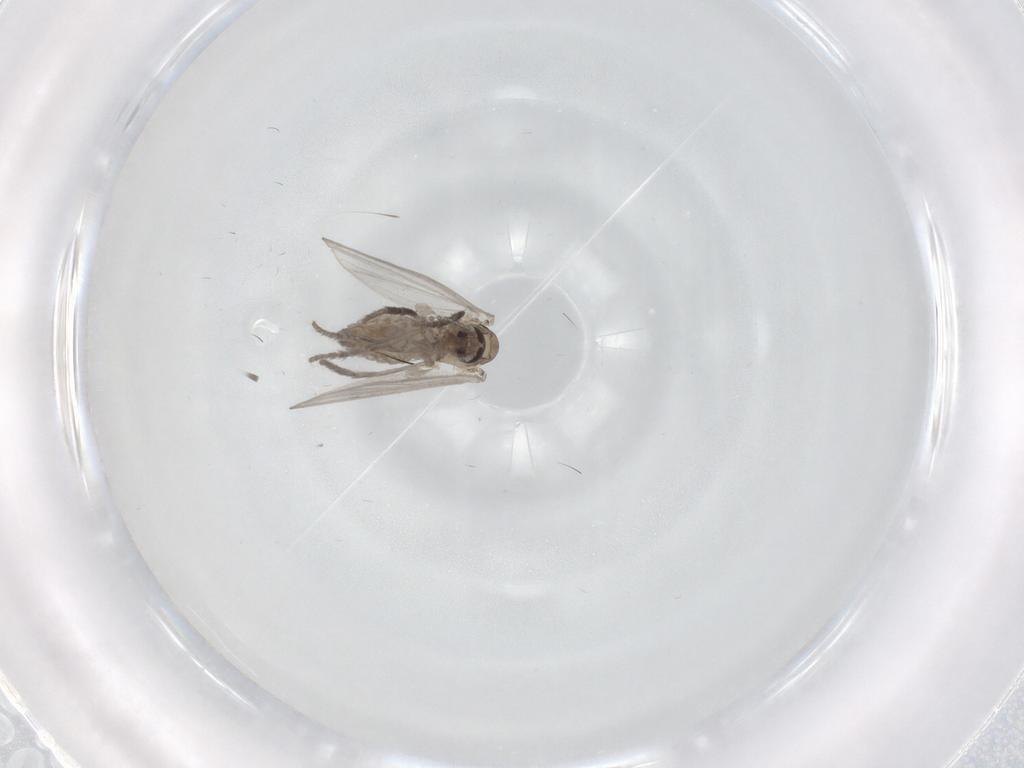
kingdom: Animalia
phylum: Arthropoda
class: Insecta
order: Diptera
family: Psychodidae
